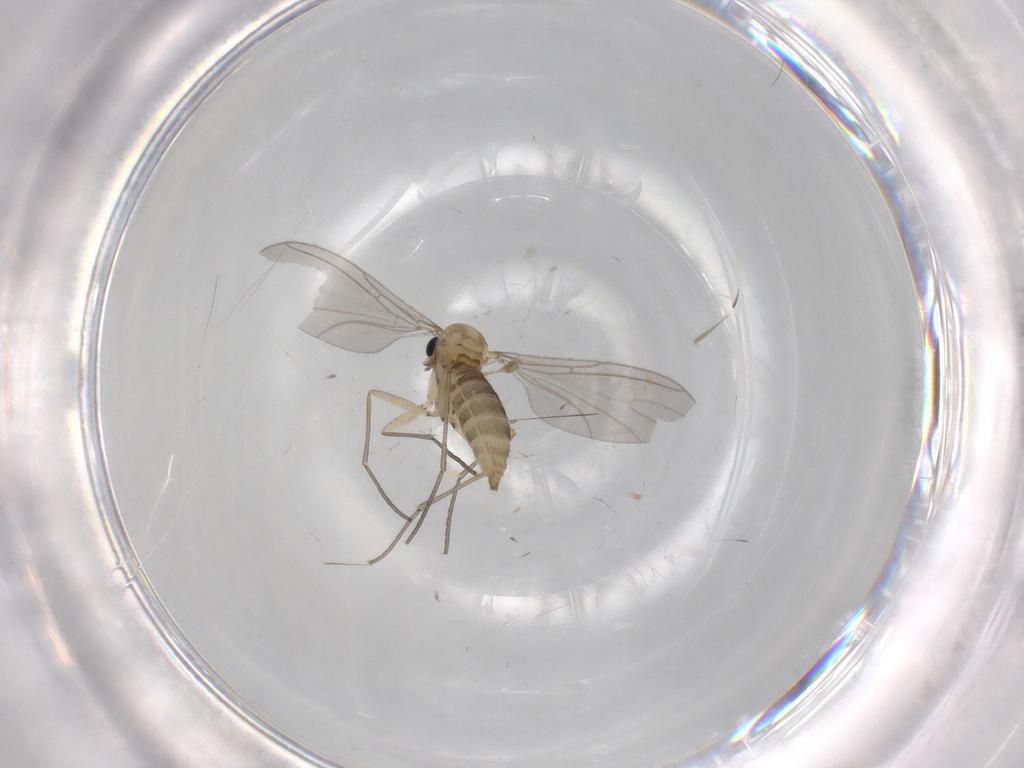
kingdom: Animalia
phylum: Arthropoda
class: Insecta
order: Diptera
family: Sciaridae
